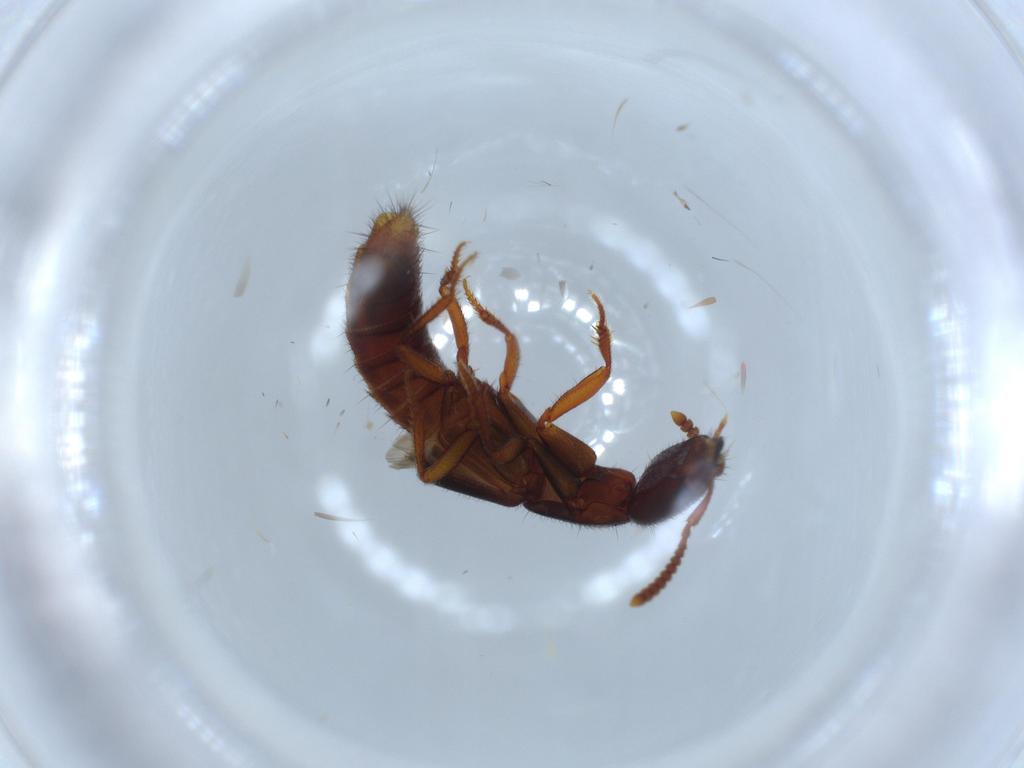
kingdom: Animalia
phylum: Arthropoda
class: Insecta
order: Coleoptera
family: Staphylinidae
